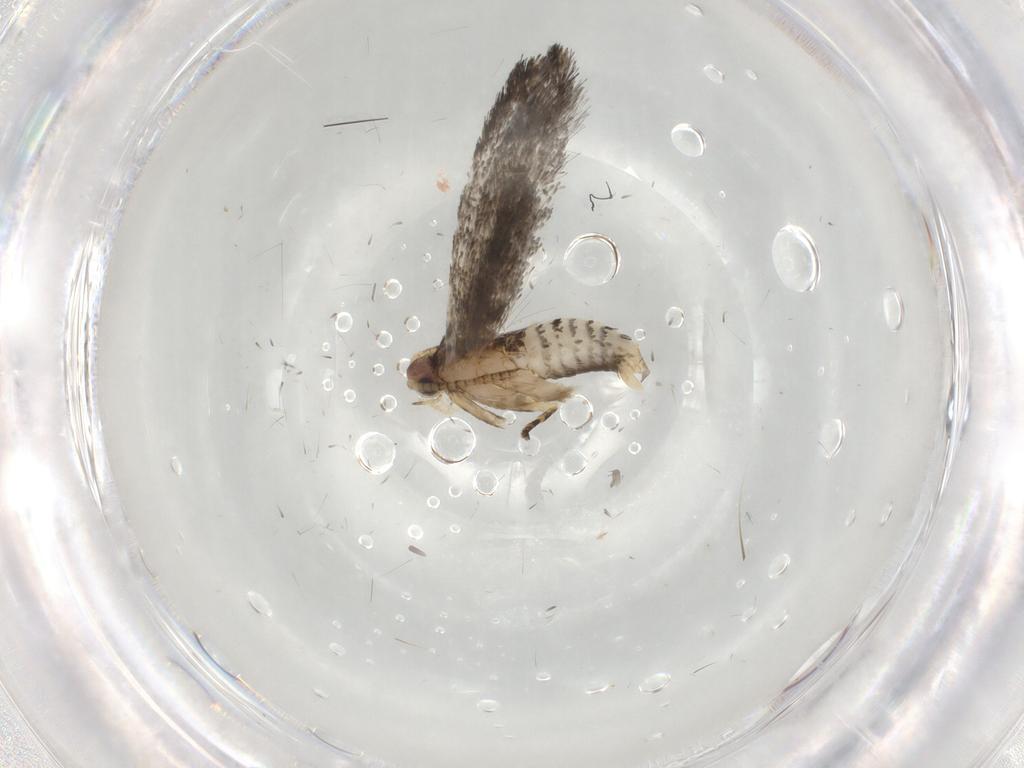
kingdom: Animalia
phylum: Arthropoda
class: Insecta
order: Lepidoptera
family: Tineidae
